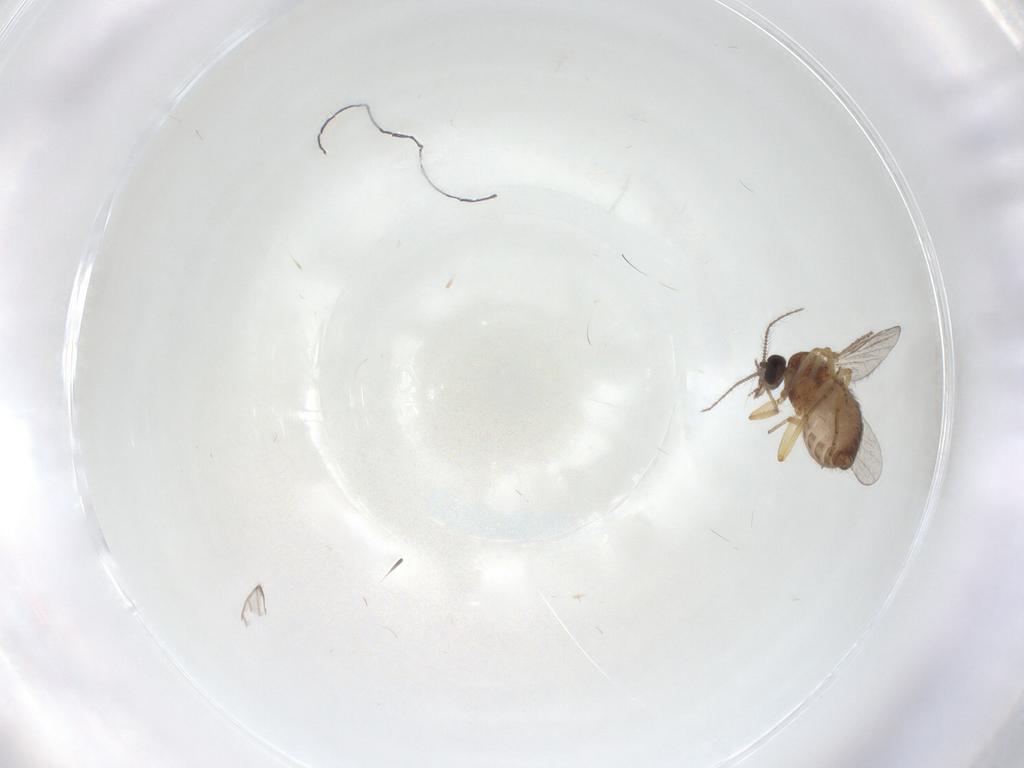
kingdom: Animalia
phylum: Arthropoda
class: Insecta
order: Diptera
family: Ceratopogonidae
